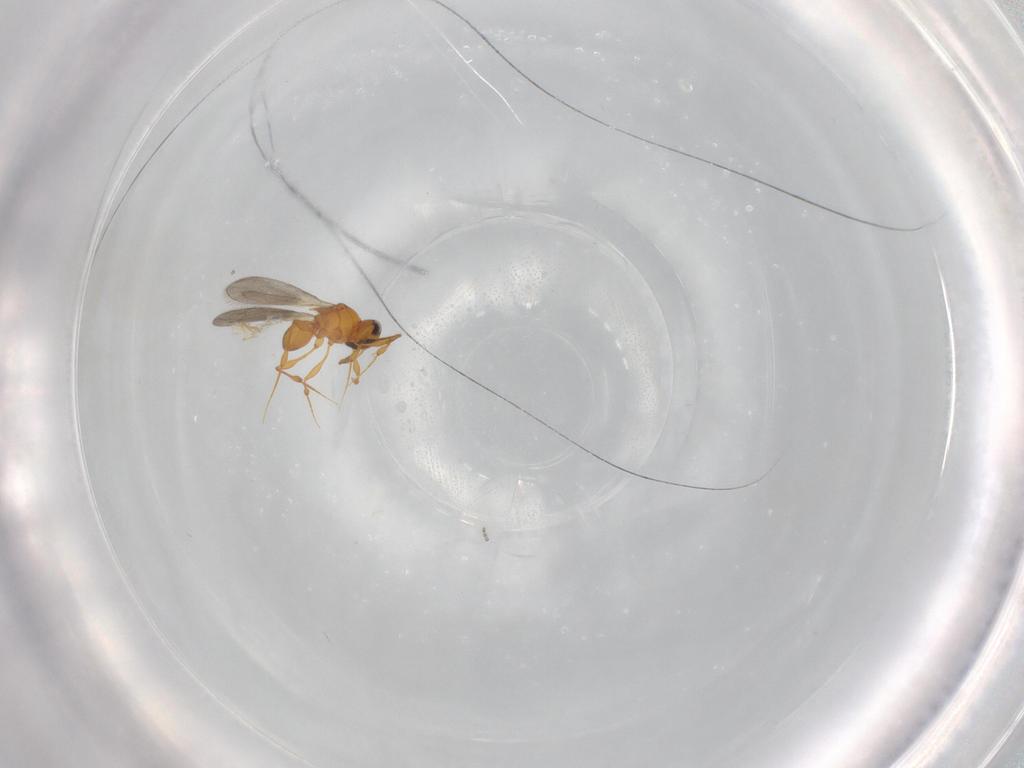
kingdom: Animalia
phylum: Arthropoda
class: Insecta
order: Hymenoptera
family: Platygastridae
